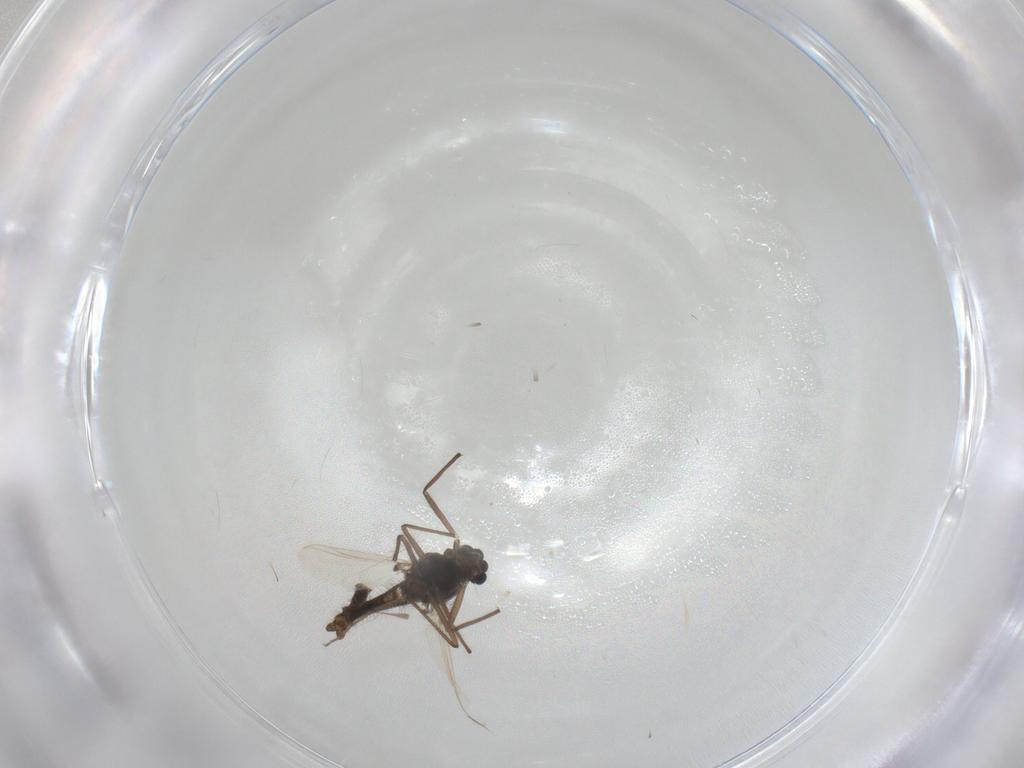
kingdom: Animalia
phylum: Arthropoda
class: Insecta
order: Diptera
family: Chironomidae
